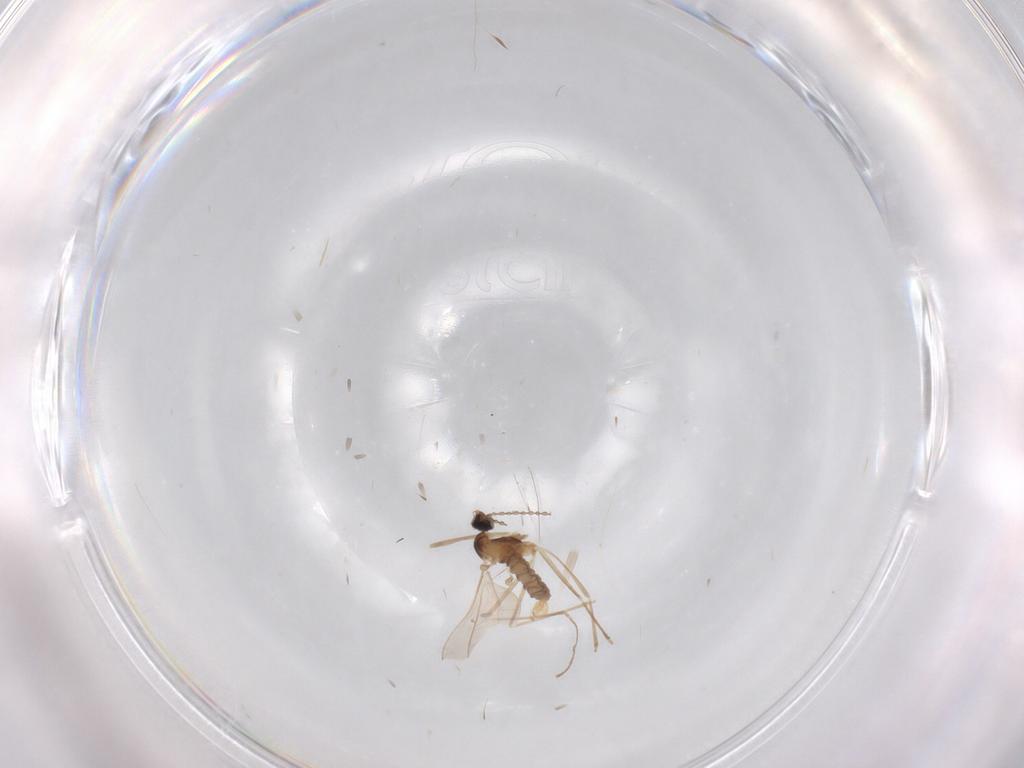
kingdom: Animalia
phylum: Arthropoda
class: Insecta
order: Diptera
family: Cecidomyiidae
